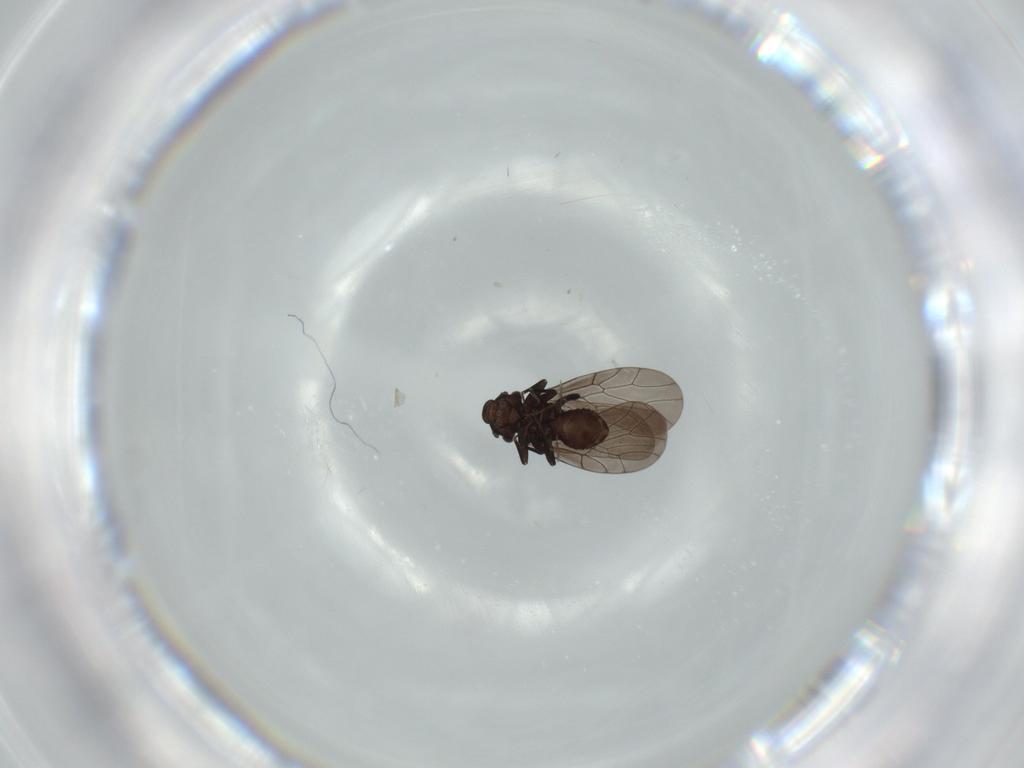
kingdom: Animalia
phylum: Arthropoda
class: Insecta
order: Psocodea
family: Lepidopsocidae
